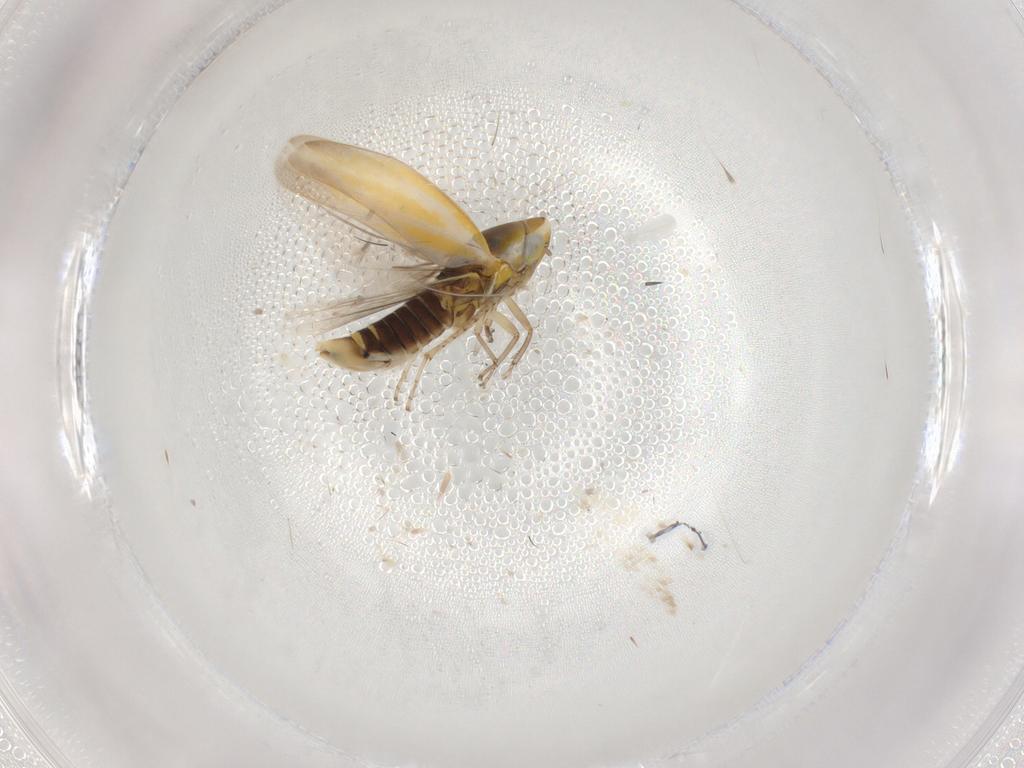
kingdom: Animalia
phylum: Arthropoda
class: Insecta
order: Hemiptera
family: Cicadellidae
